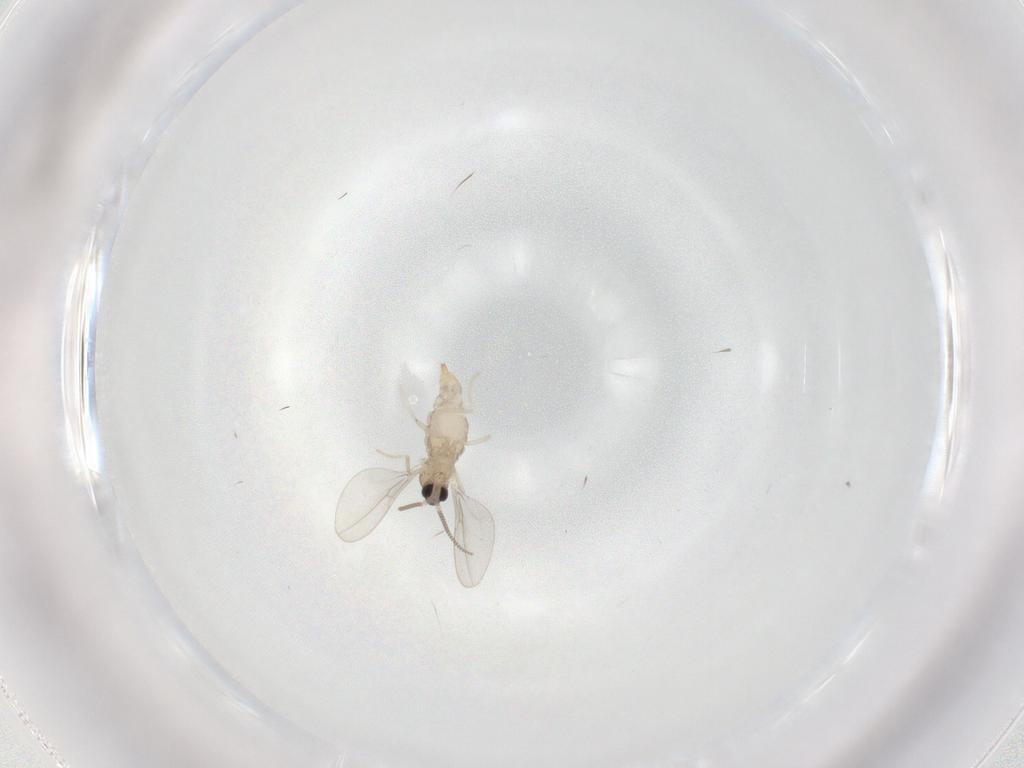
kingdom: Animalia
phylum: Arthropoda
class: Insecta
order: Diptera
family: Cecidomyiidae
